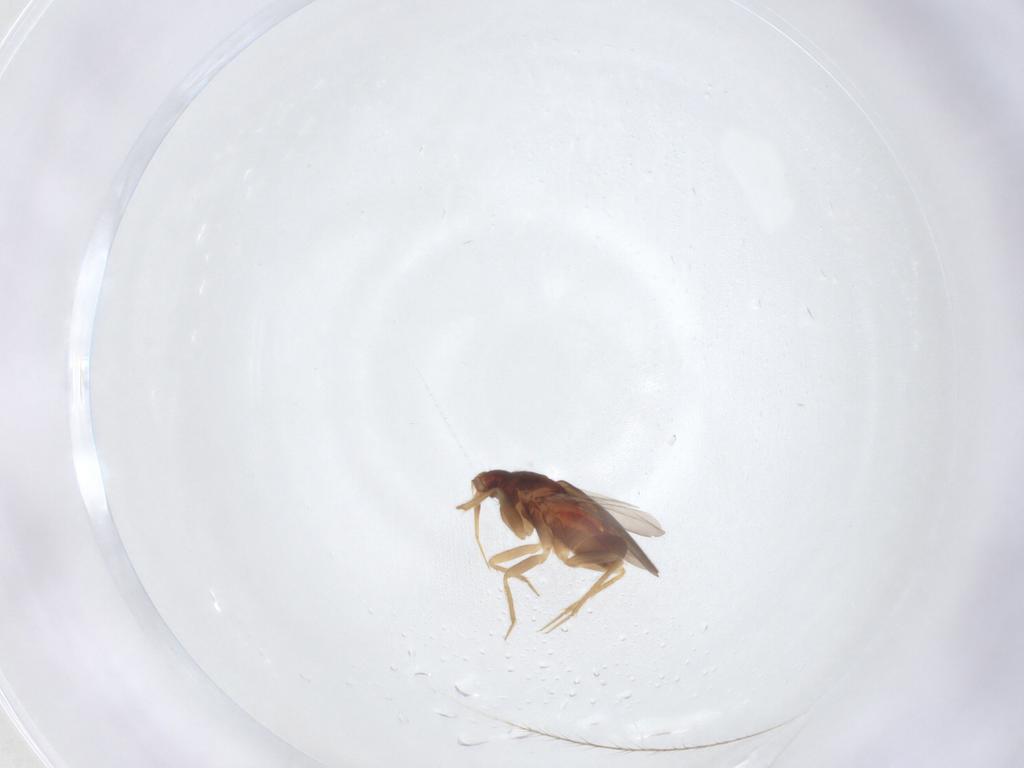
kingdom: Animalia
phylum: Arthropoda
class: Insecta
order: Hemiptera
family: Ceratocombidae
